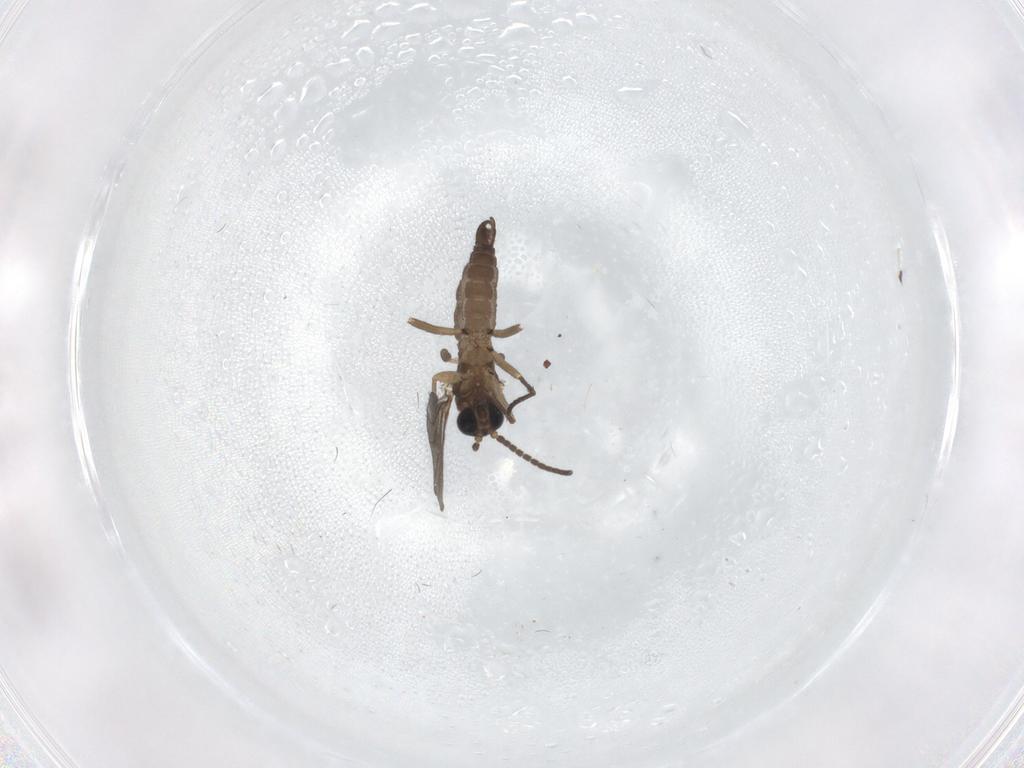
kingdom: Animalia
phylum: Arthropoda
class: Insecta
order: Diptera
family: Sciaridae
